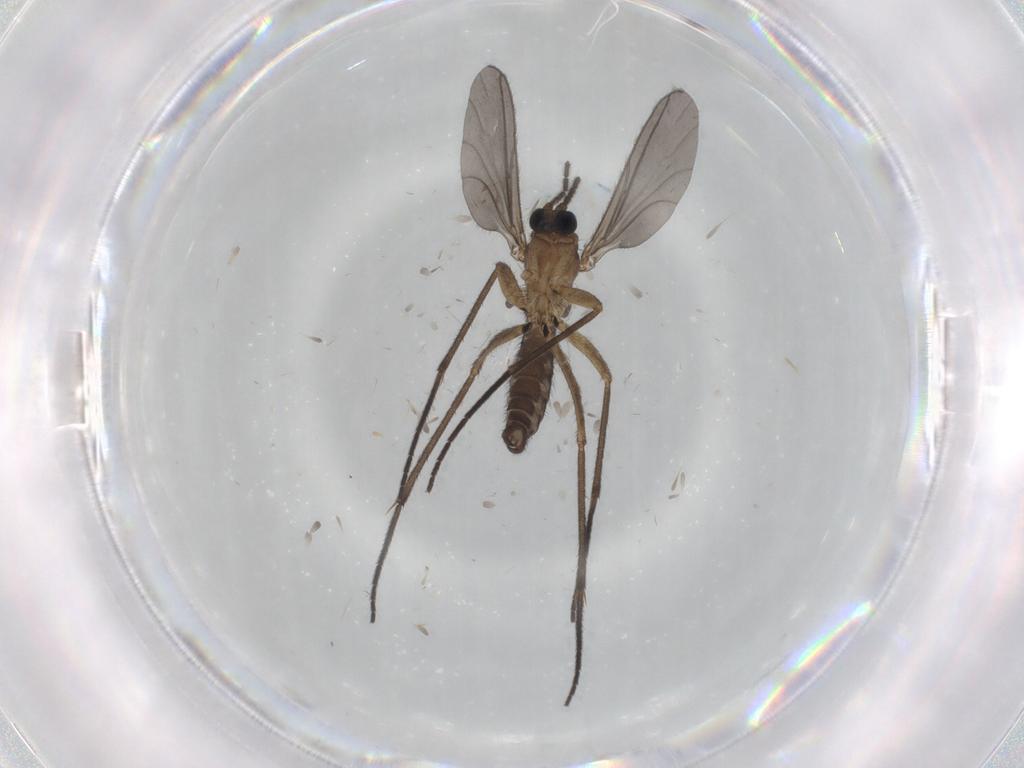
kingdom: Animalia
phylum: Arthropoda
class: Insecta
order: Diptera
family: Sciaridae
